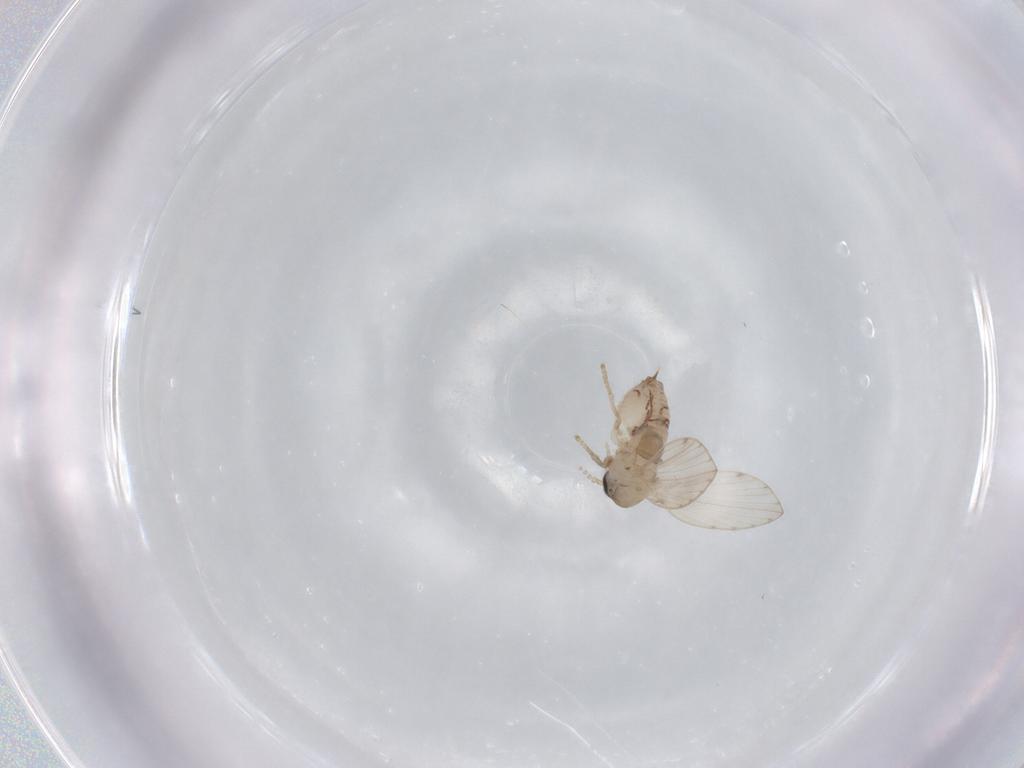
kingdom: Animalia
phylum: Arthropoda
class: Insecta
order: Diptera
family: Psychodidae
